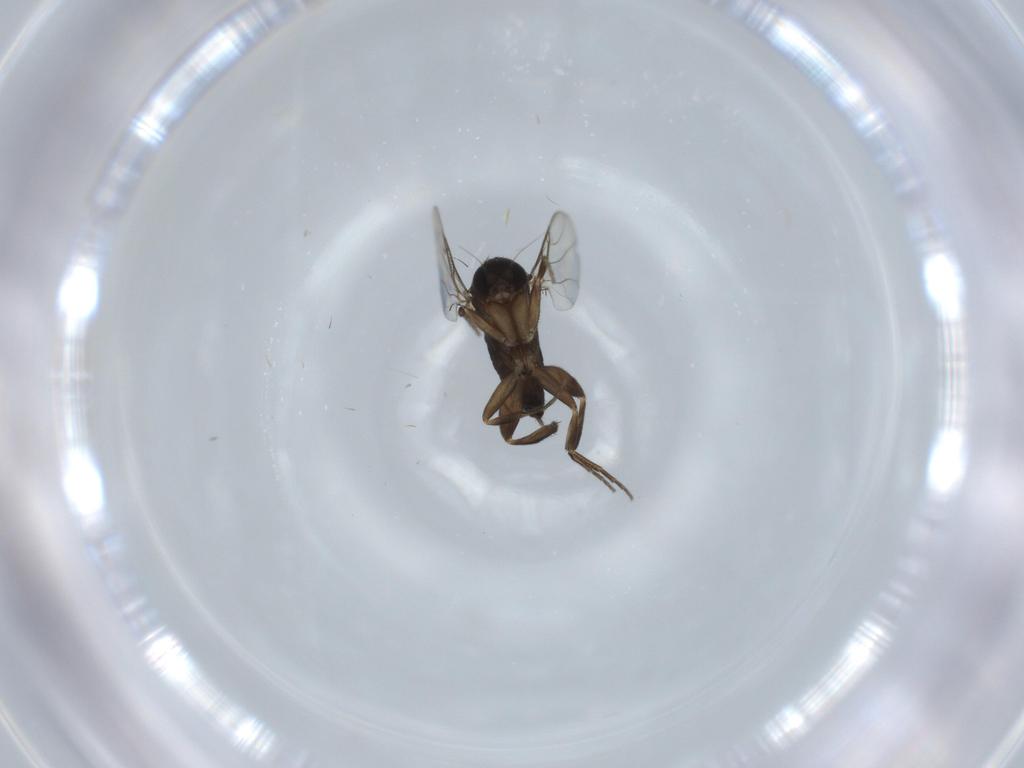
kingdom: Animalia
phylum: Arthropoda
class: Insecta
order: Diptera
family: Phoridae
